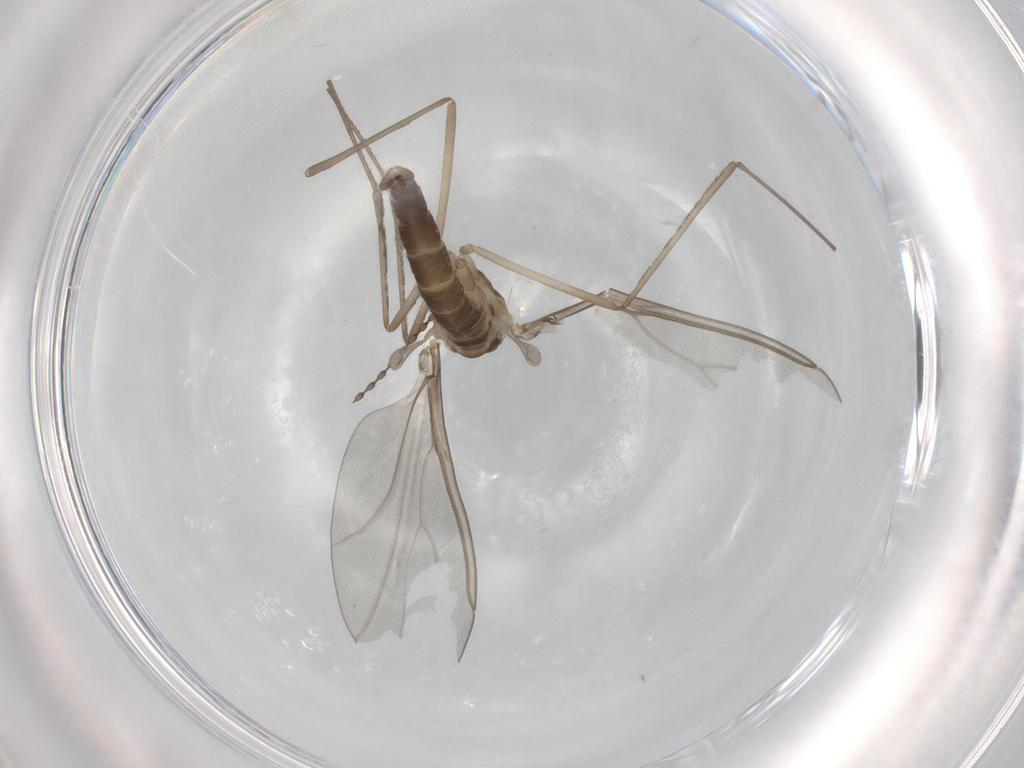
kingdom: Animalia
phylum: Arthropoda
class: Insecta
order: Diptera
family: Cecidomyiidae
